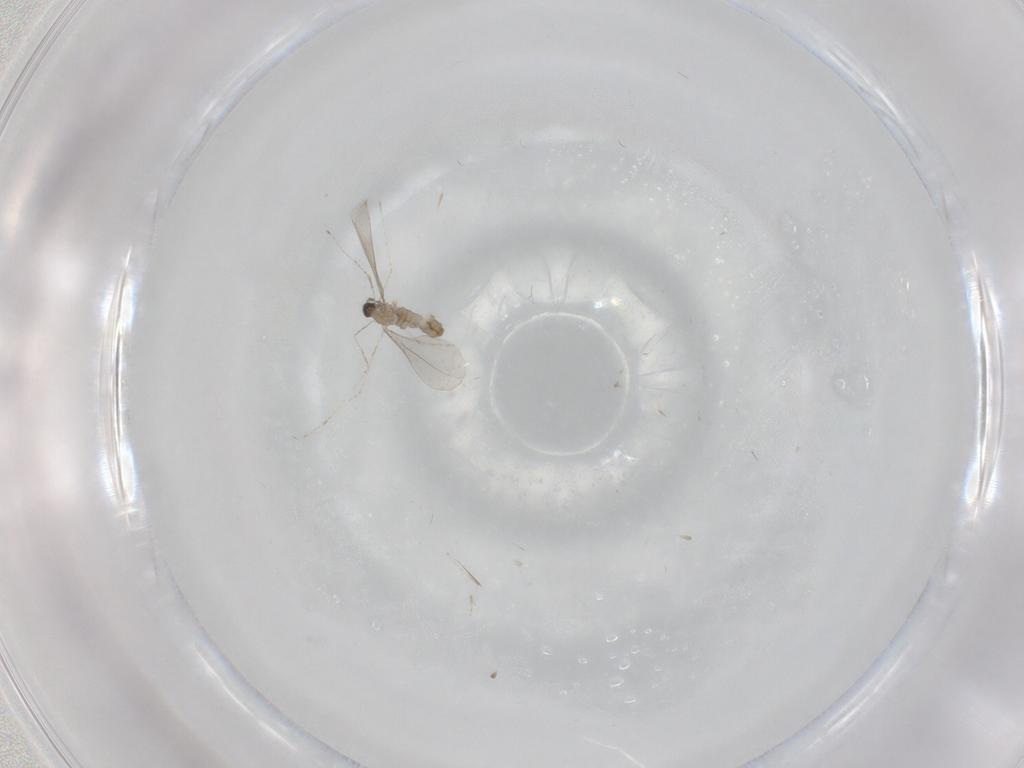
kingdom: Animalia
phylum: Arthropoda
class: Insecta
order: Diptera
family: Cecidomyiidae
